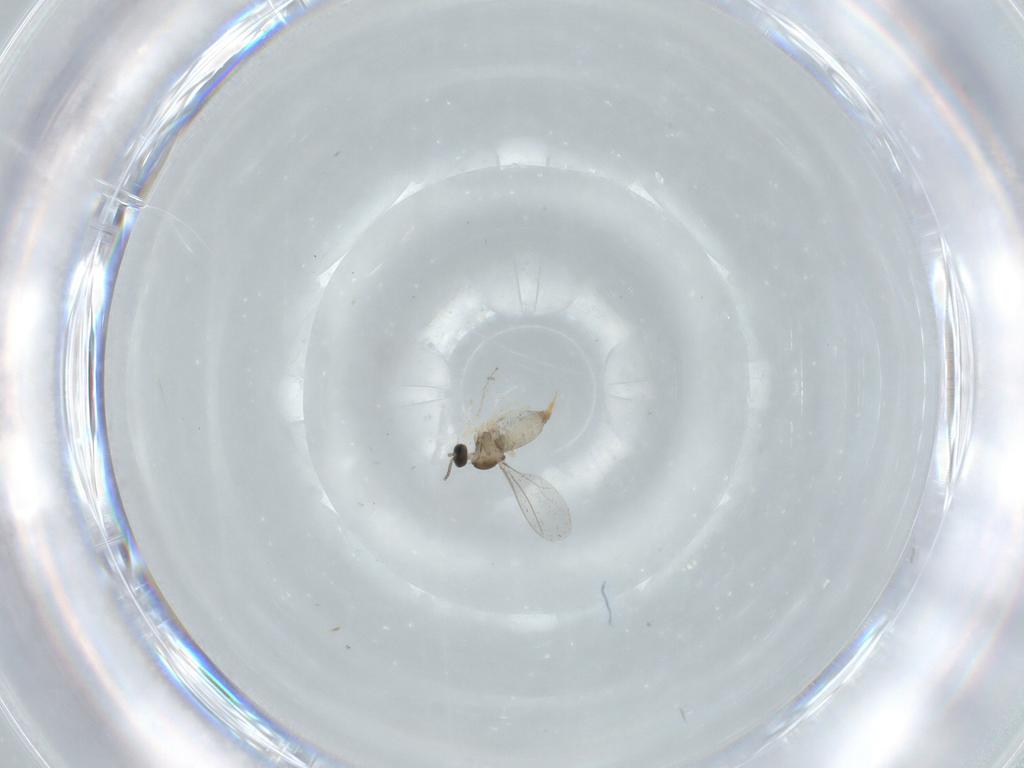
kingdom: Animalia
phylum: Arthropoda
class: Insecta
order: Diptera
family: Cecidomyiidae
